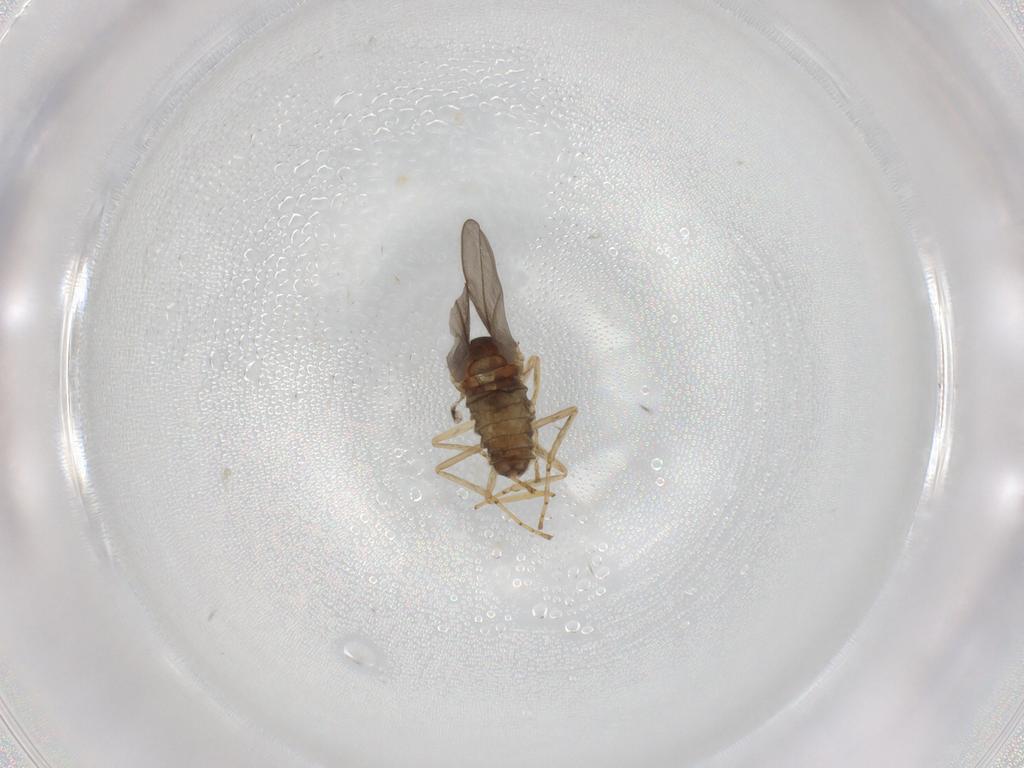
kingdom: Animalia
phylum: Arthropoda
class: Insecta
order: Diptera
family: Cecidomyiidae
